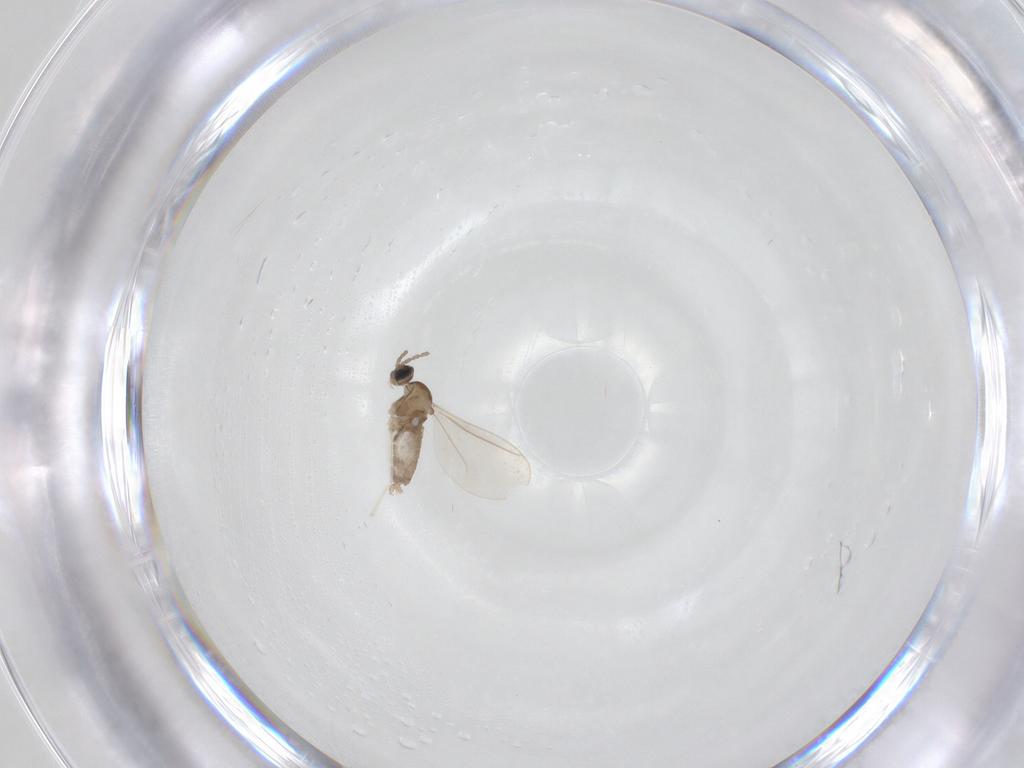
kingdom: Animalia
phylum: Arthropoda
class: Insecta
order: Diptera
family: Cecidomyiidae
